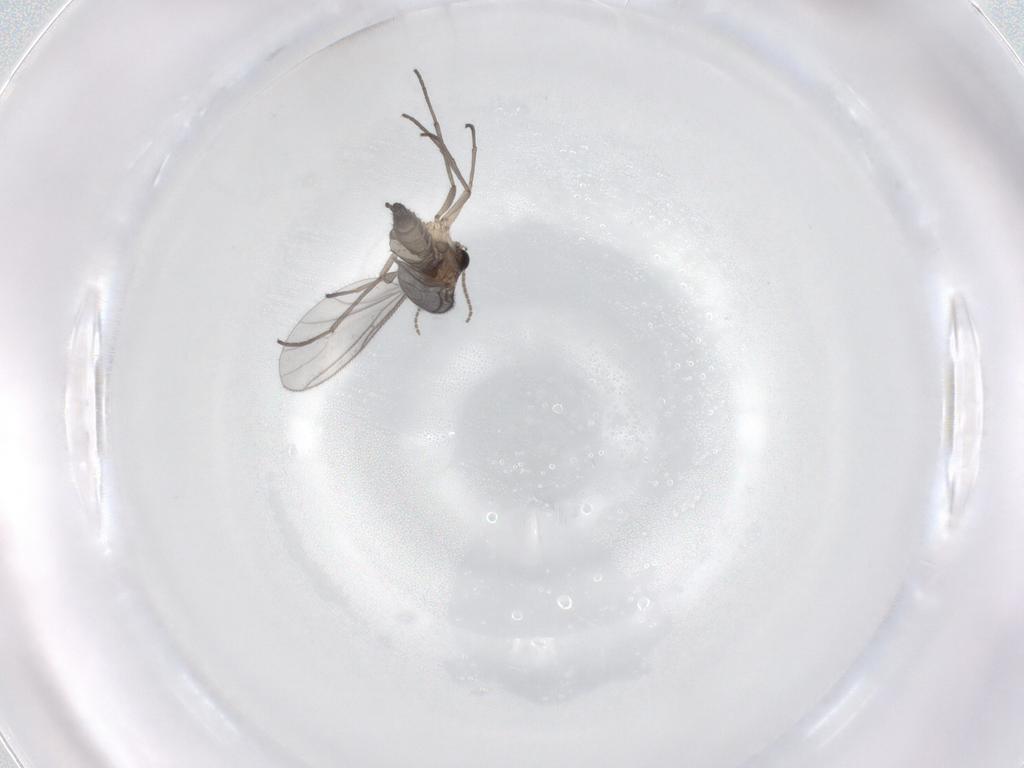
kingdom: Animalia
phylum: Arthropoda
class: Insecta
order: Diptera
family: Sciaridae
